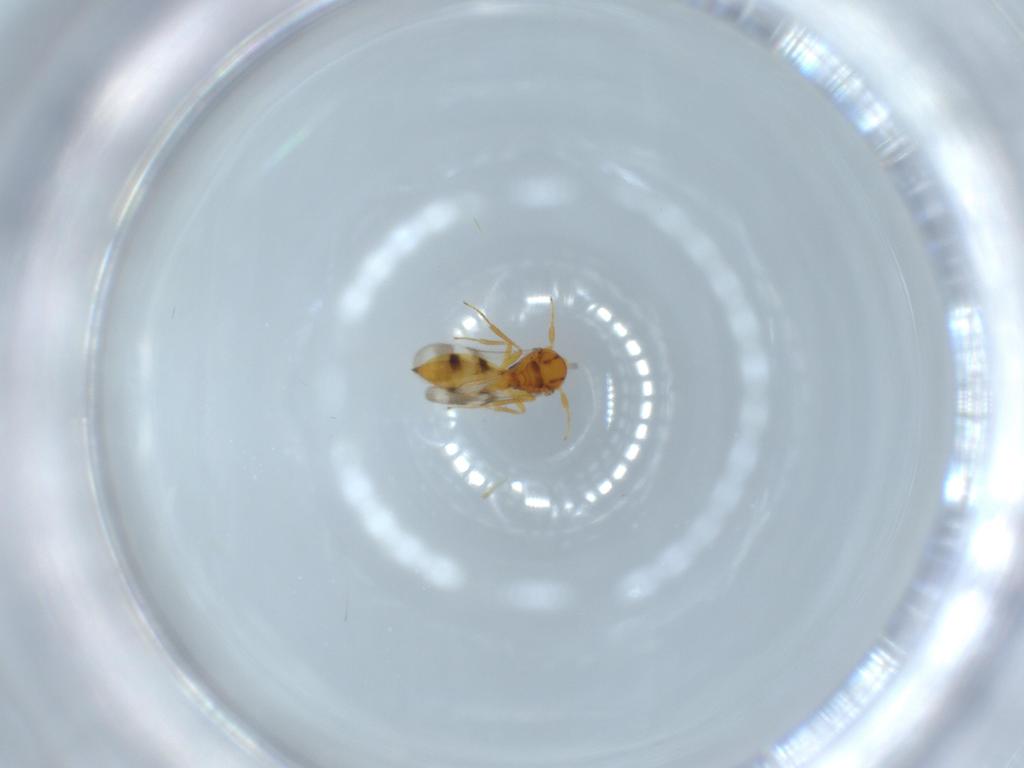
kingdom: Animalia
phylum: Arthropoda
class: Insecta
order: Hymenoptera
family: Scelionidae
